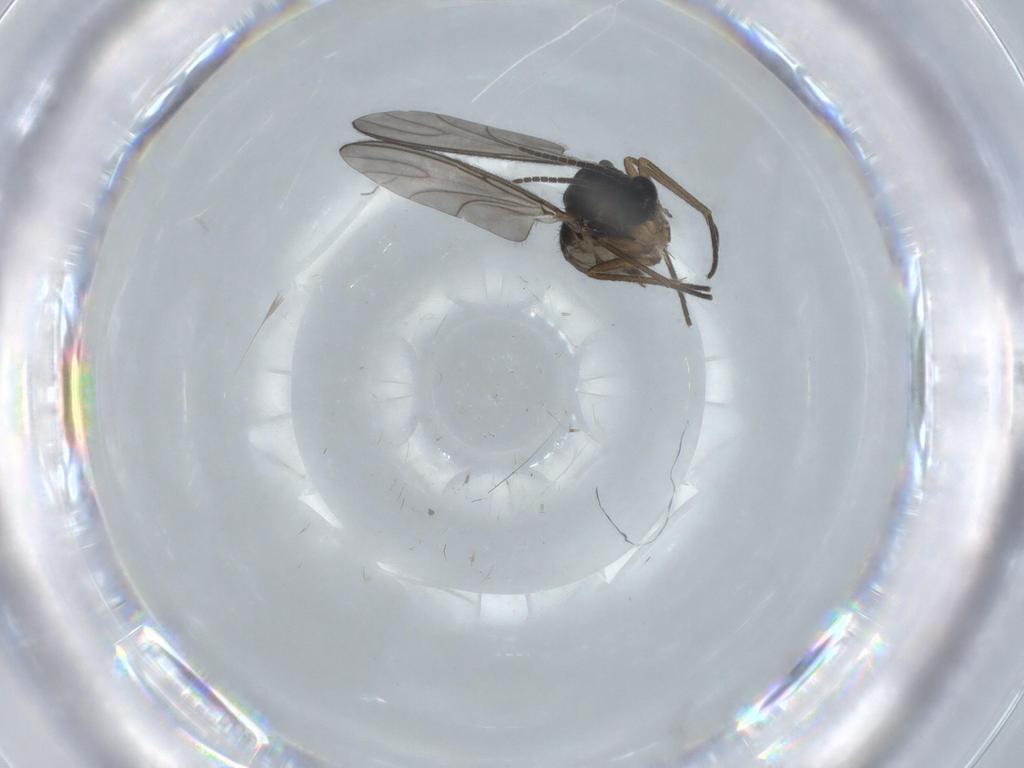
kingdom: Animalia
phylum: Arthropoda
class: Insecta
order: Diptera
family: Sciaridae
